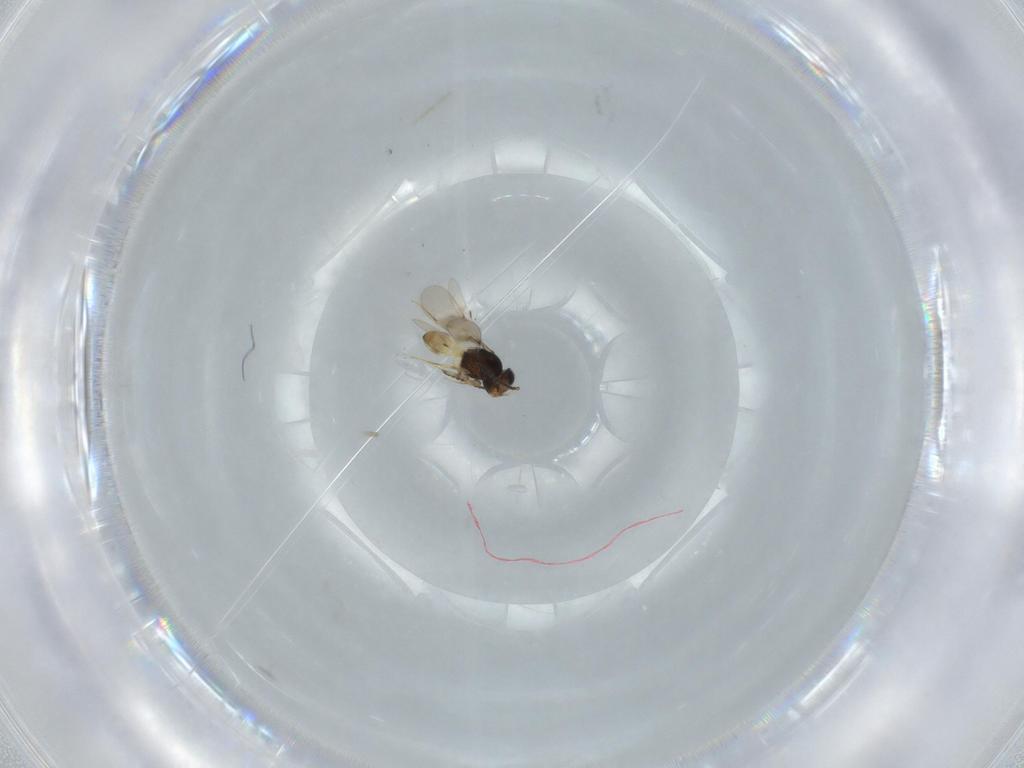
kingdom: Animalia
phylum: Arthropoda
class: Insecta
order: Hymenoptera
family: Scelionidae
